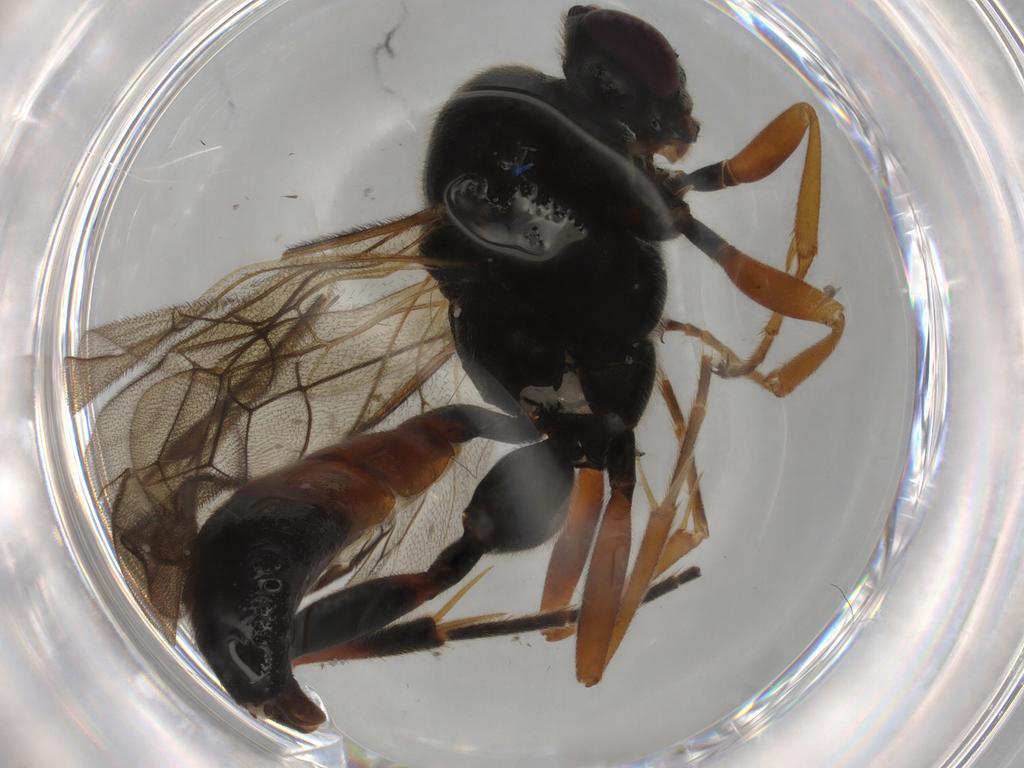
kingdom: Animalia
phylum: Arthropoda
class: Insecta
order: Hymenoptera
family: Ichneumonidae
